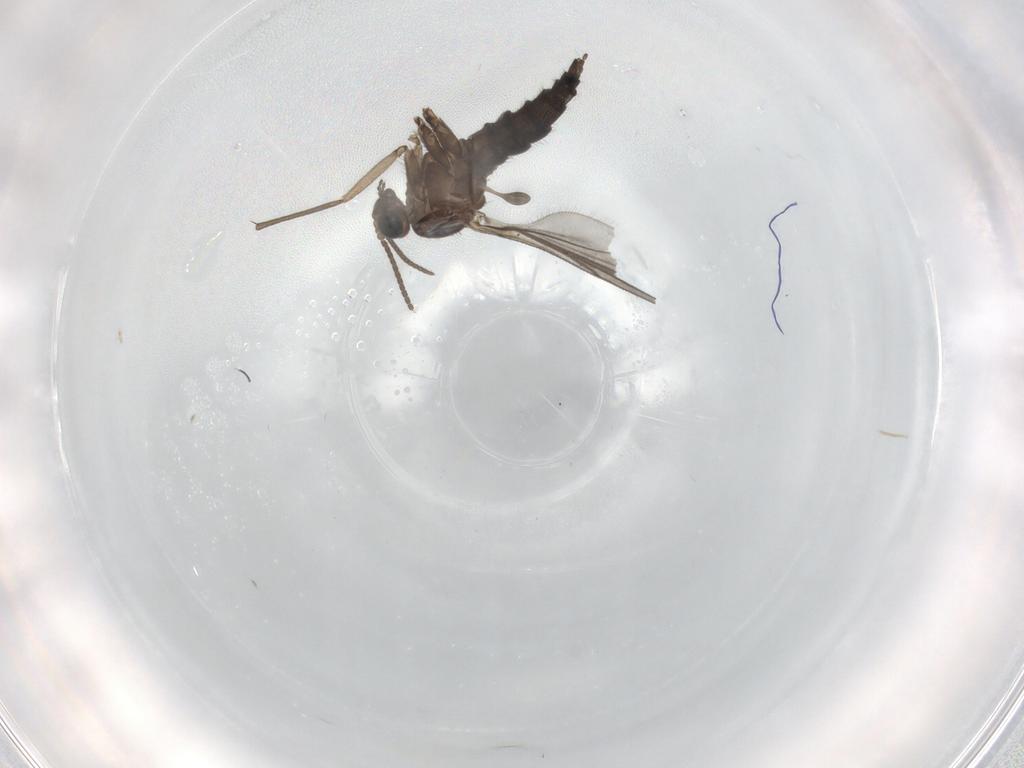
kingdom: Animalia
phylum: Arthropoda
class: Insecta
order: Diptera
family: Sciaridae
